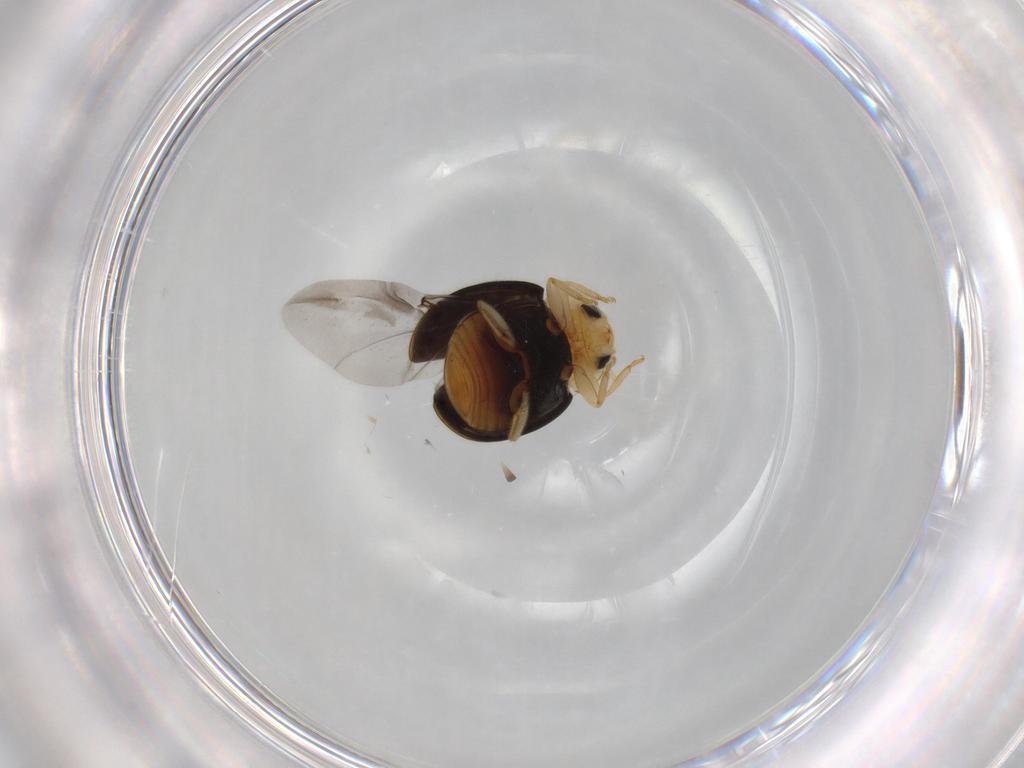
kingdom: Animalia
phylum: Arthropoda
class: Insecta
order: Coleoptera
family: Coccinellidae
